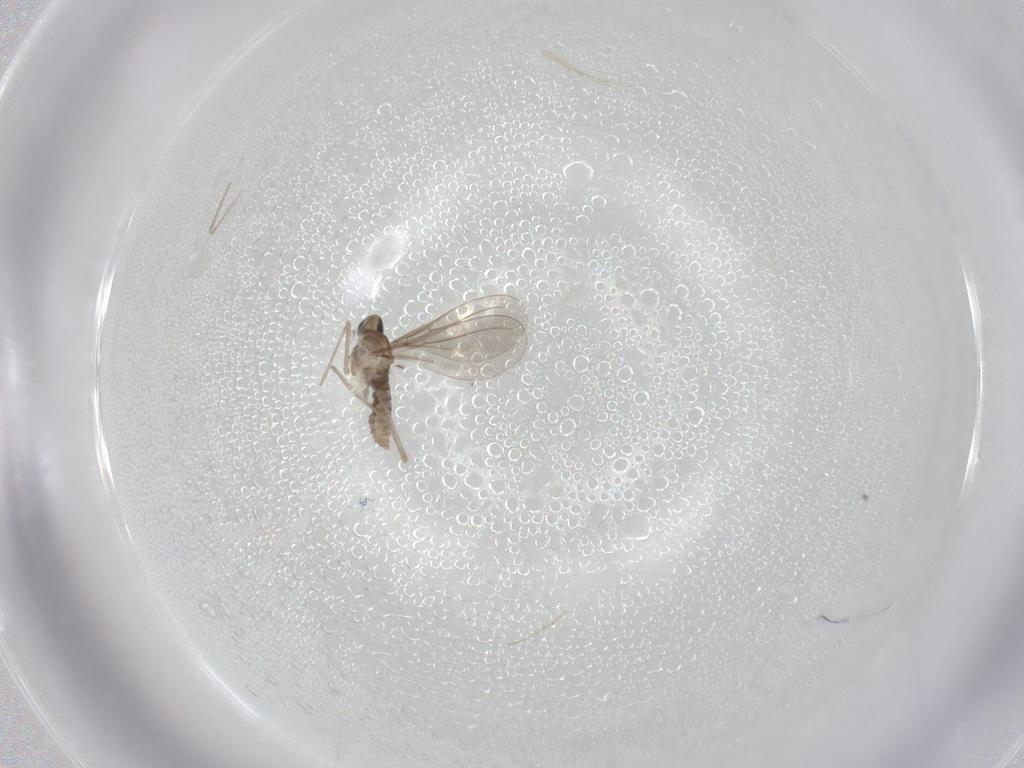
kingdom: Animalia
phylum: Arthropoda
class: Insecta
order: Diptera
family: Cecidomyiidae
